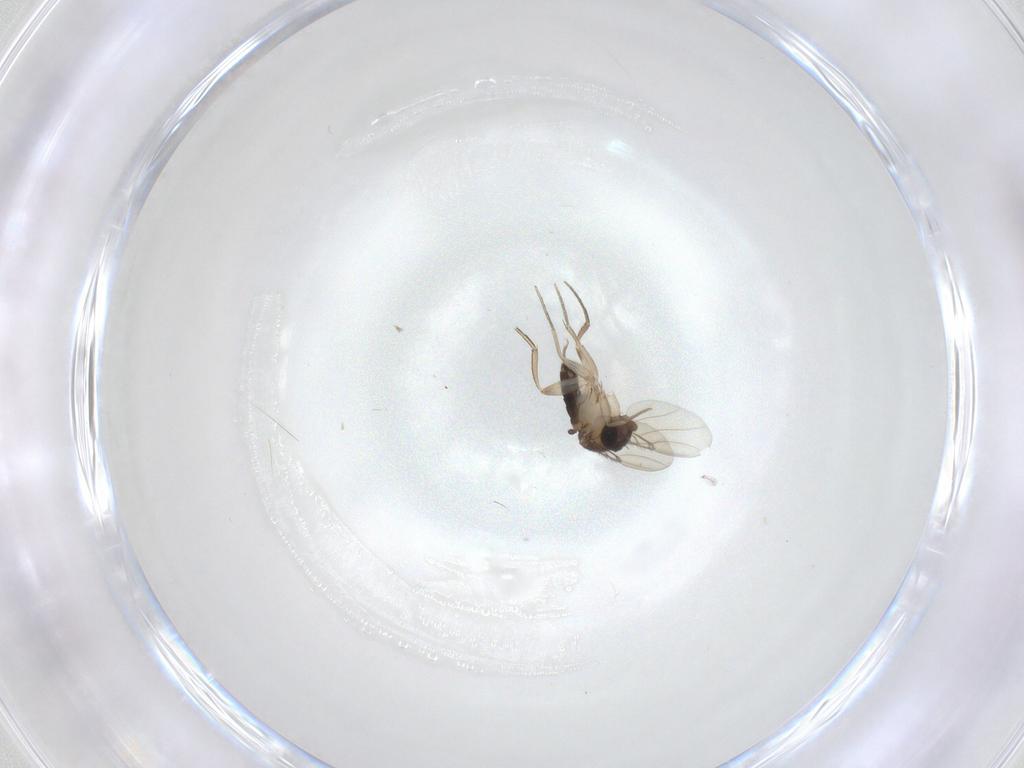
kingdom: Animalia
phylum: Arthropoda
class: Insecta
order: Diptera
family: Phoridae
